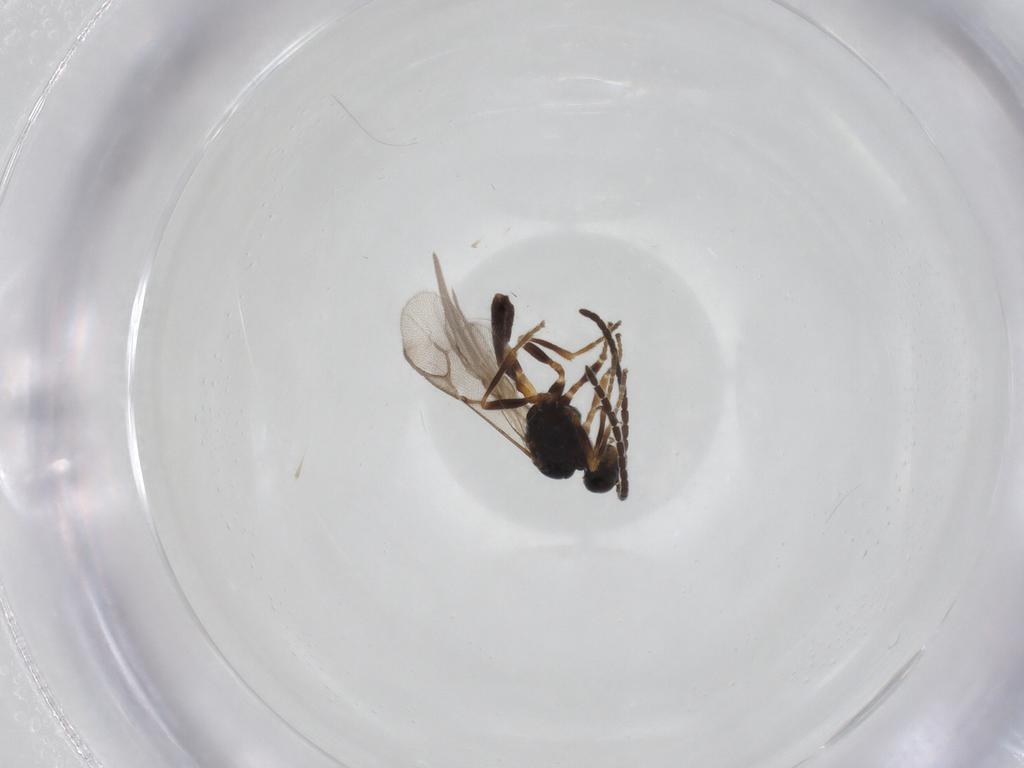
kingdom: Animalia
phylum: Arthropoda
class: Insecta
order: Hymenoptera
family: Braconidae
